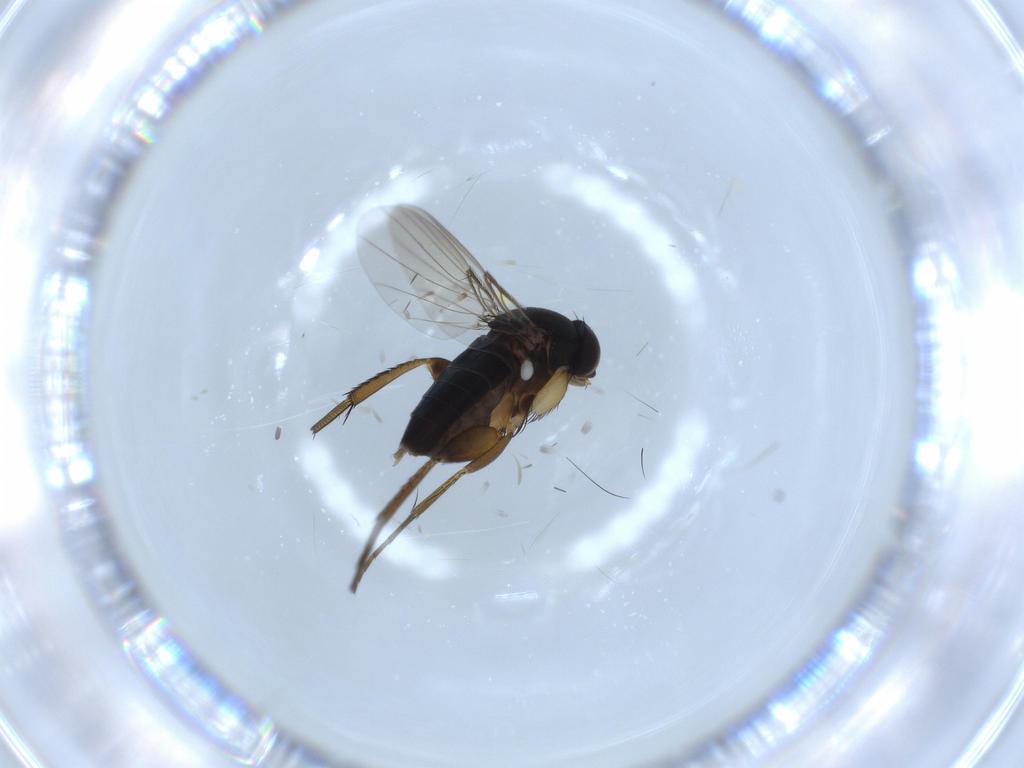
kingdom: Animalia
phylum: Arthropoda
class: Insecta
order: Diptera
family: Phoridae
